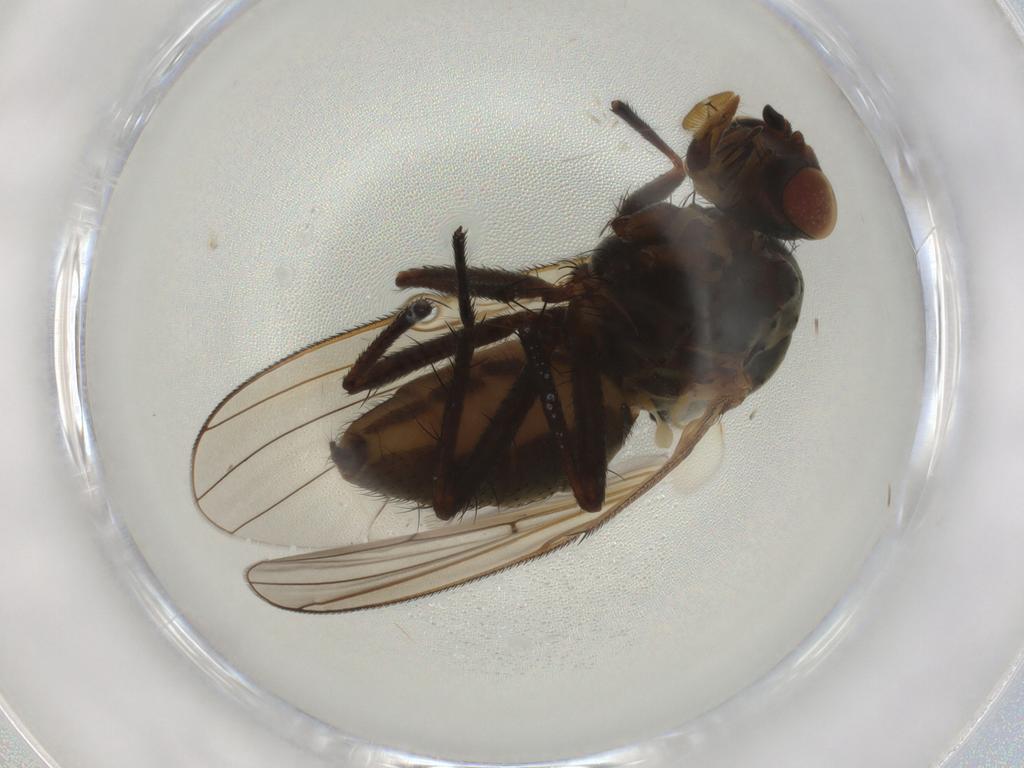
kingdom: Animalia
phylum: Arthropoda
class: Insecta
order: Diptera
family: Anthomyiidae
